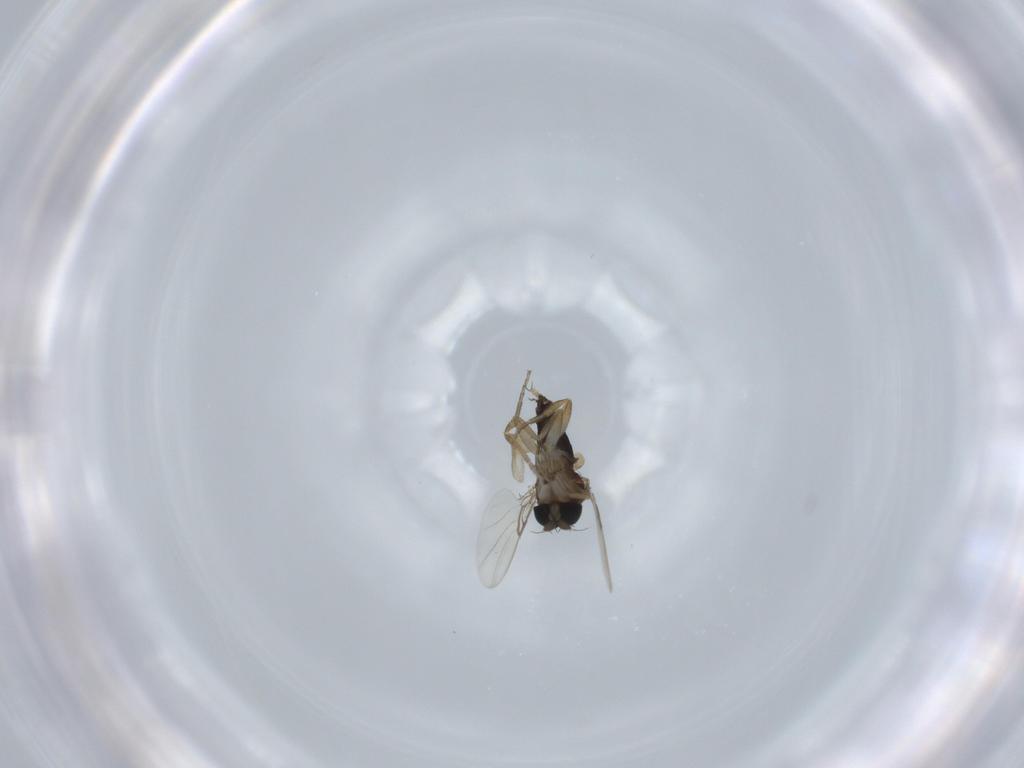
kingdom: Animalia
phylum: Arthropoda
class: Insecta
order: Diptera
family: Phoridae
